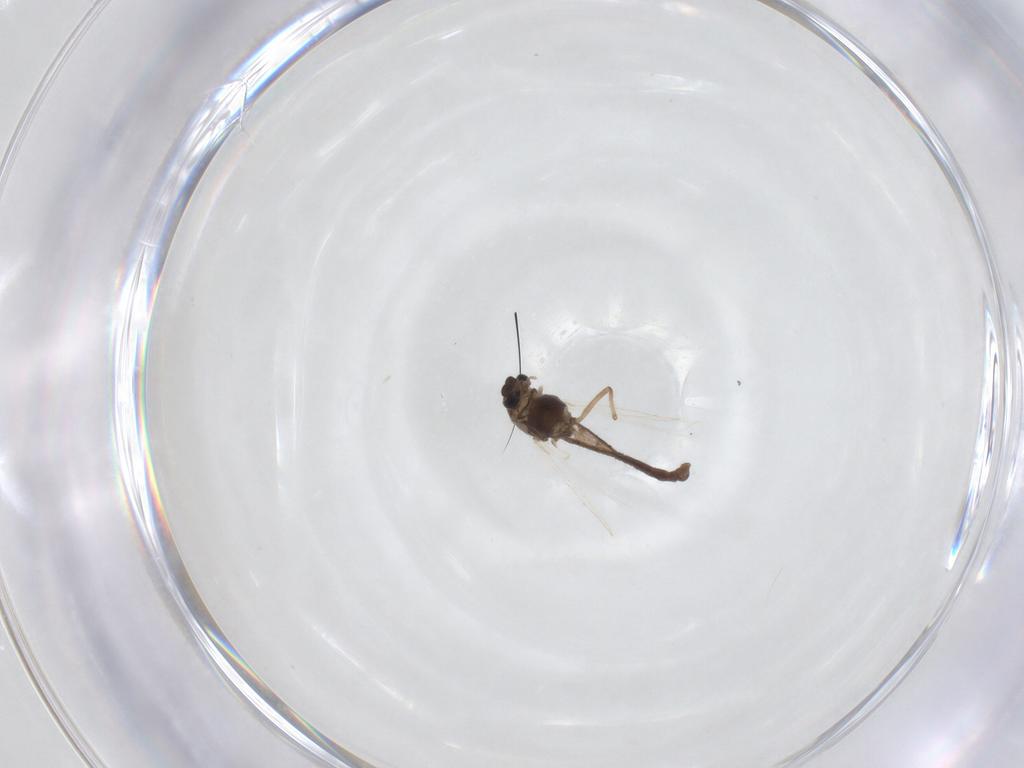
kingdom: Animalia
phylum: Arthropoda
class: Insecta
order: Diptera
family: Chironomidae
